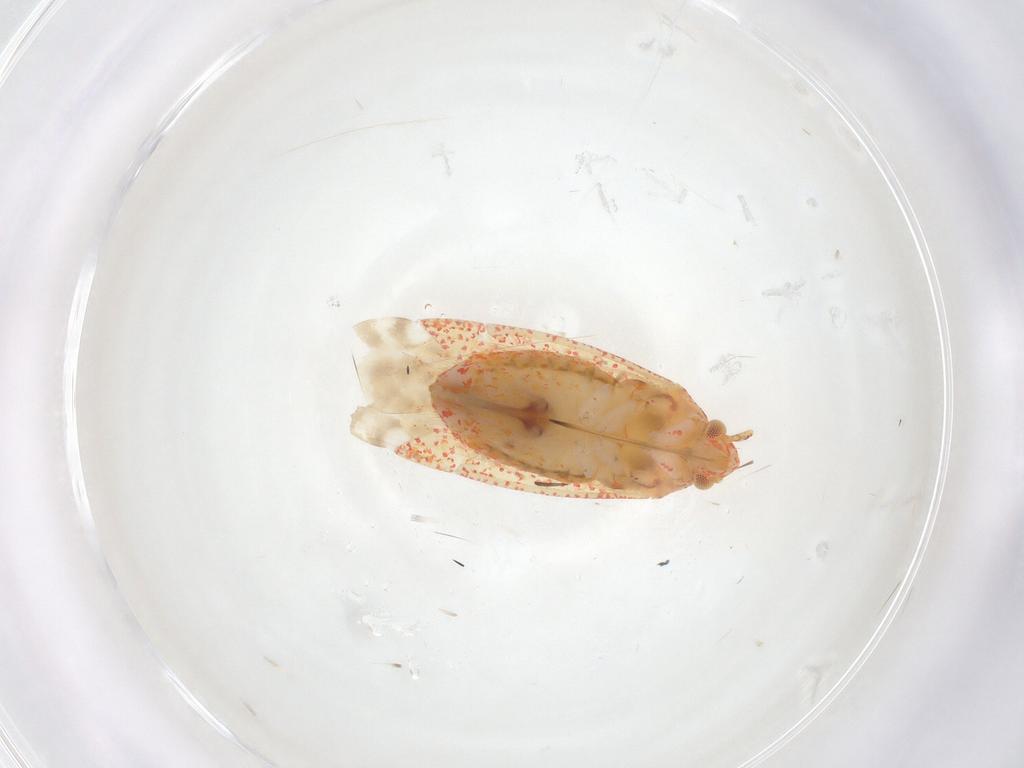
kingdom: Animalia
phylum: Arthropoda
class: Insecta
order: Hemiptera
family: Miridae
